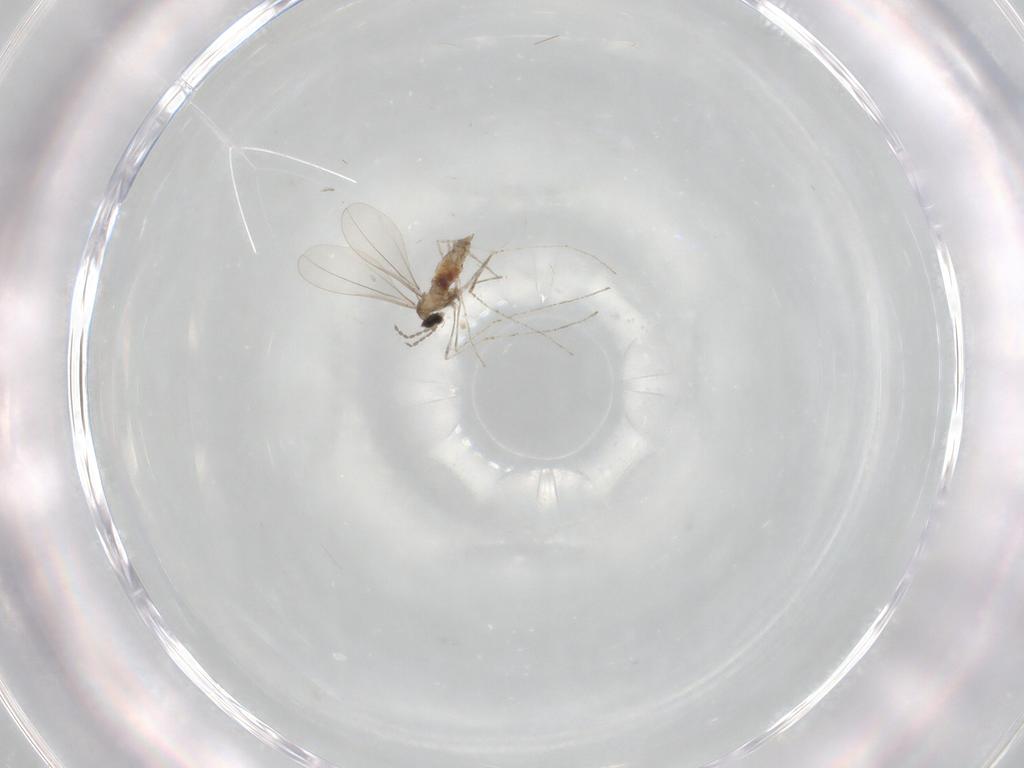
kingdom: Animalia
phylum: Arthropoda
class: Insecta
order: Diptera
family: Cecidomyiidae
